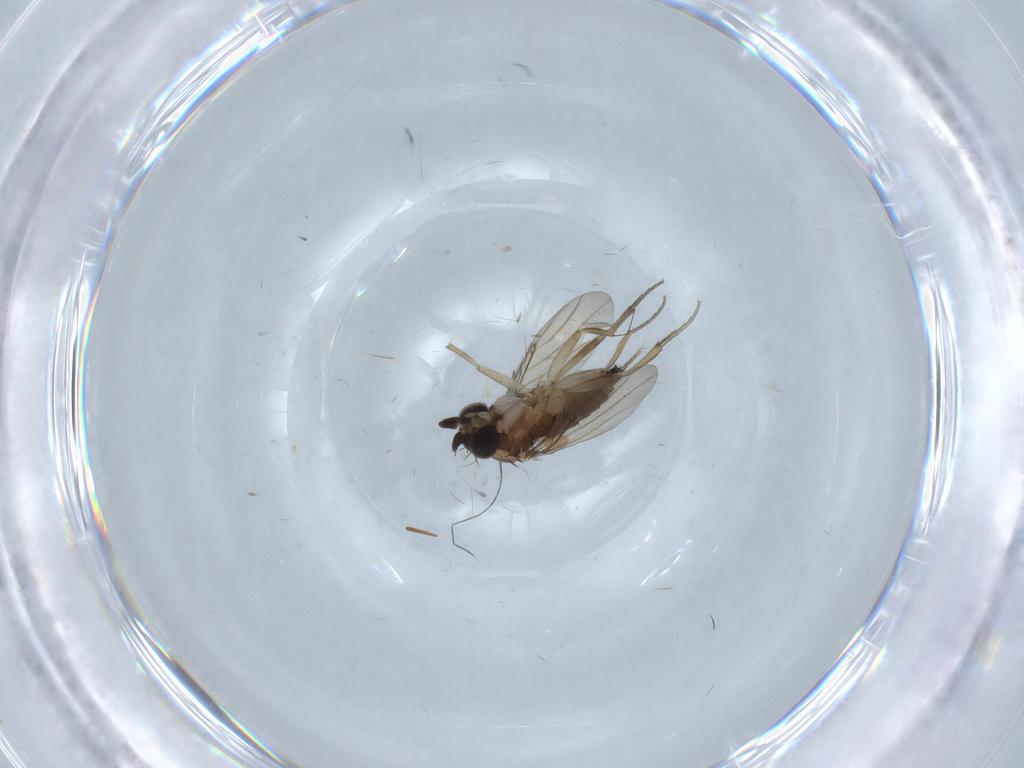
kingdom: Animalia
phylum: Arthropoda
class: Insecta
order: Diptera
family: Phoridae
